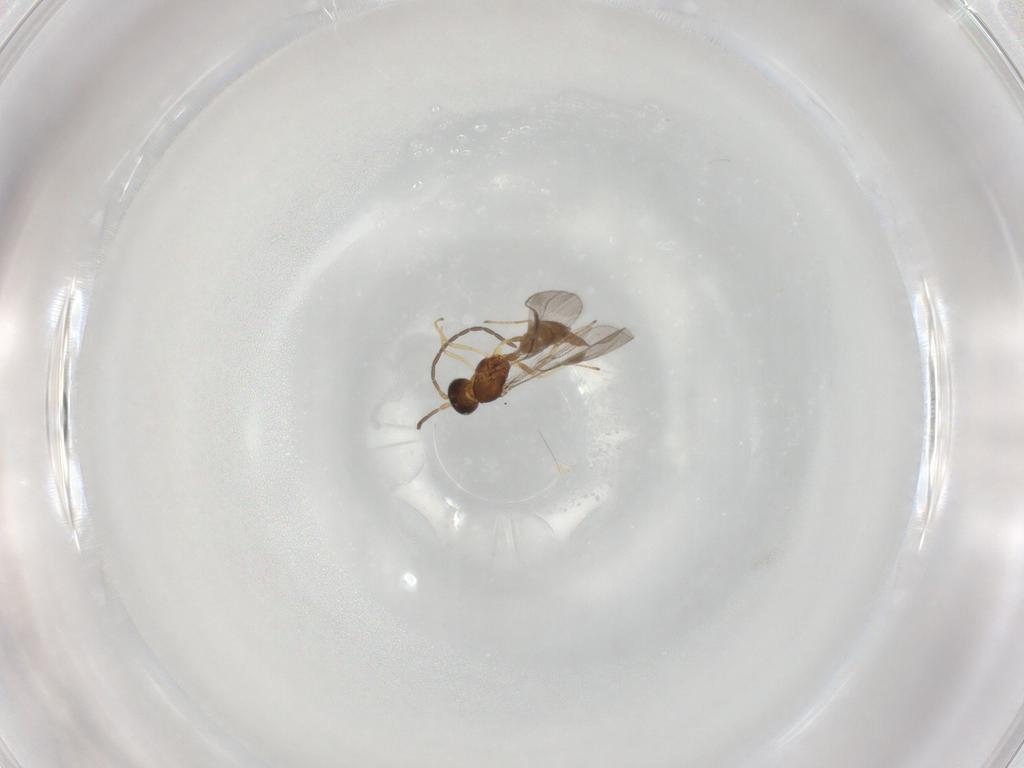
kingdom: Animalia
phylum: Arthropoda
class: Insecta
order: Hymenoptera
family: Braconidae
